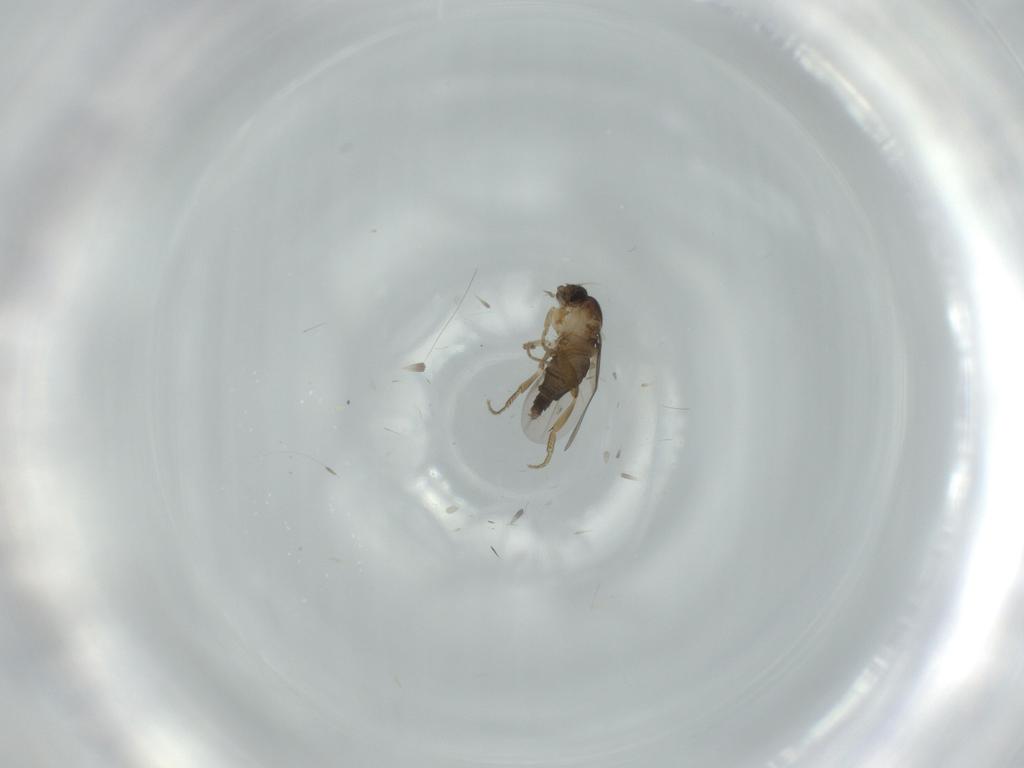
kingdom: Animalia
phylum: Arthropoda
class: Insecta
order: Diptera
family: Phoridae
